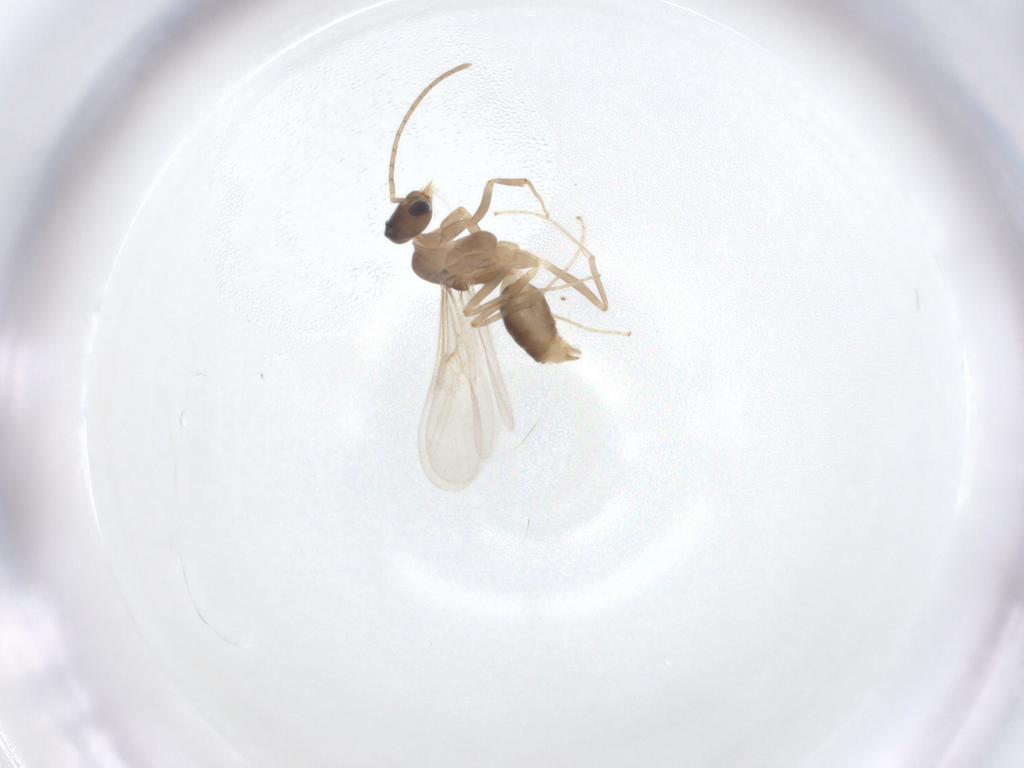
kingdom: Animalia
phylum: Arthropoda
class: Insecta
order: Hymenoptera
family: Formicidae
